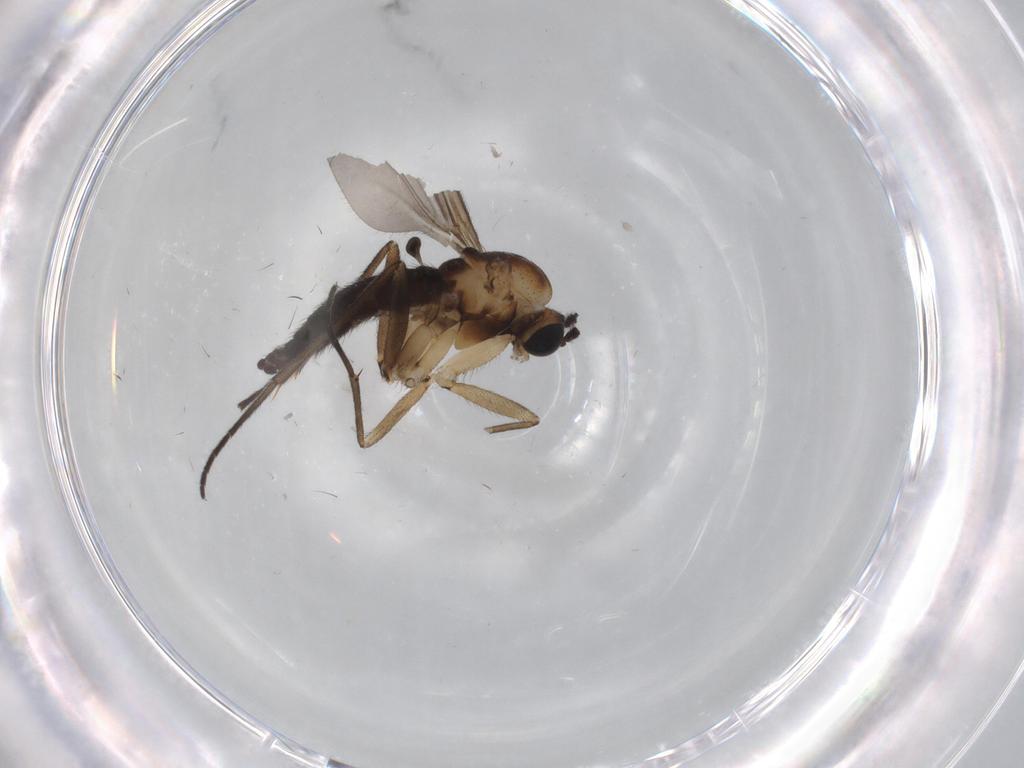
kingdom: Animalia
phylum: Arthropoda
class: Insecta
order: Diptera
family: Sciaridae
